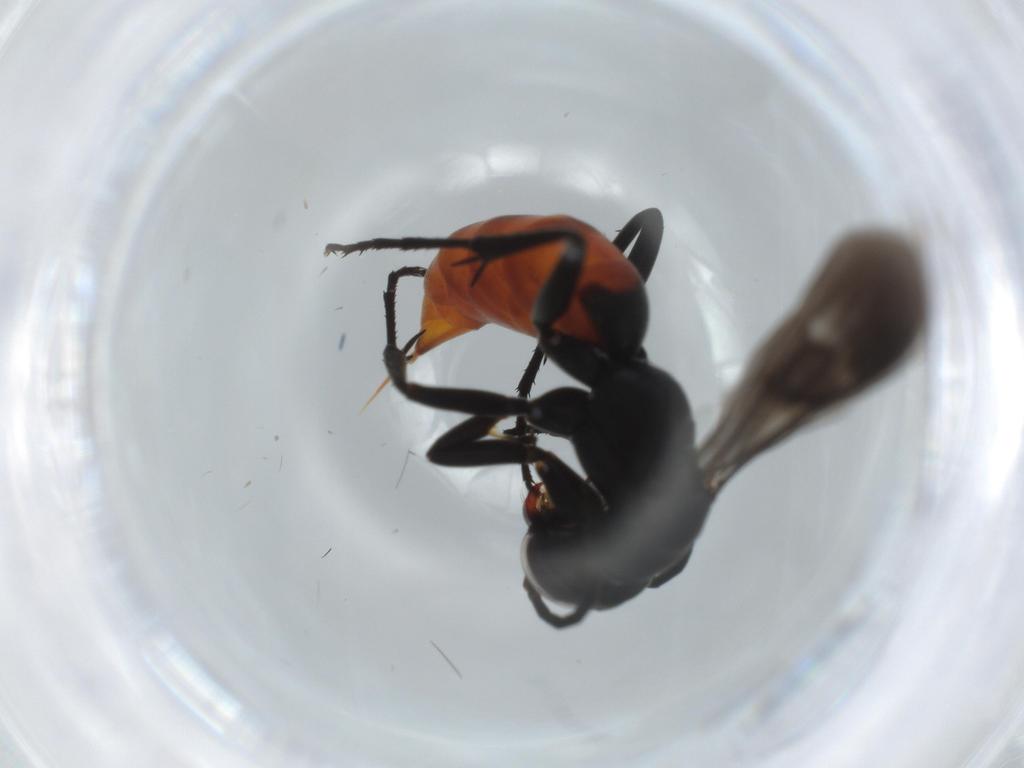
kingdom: Animalia
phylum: Arthropoda
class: Insecta
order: Hymenoptera
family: Pompilidae
